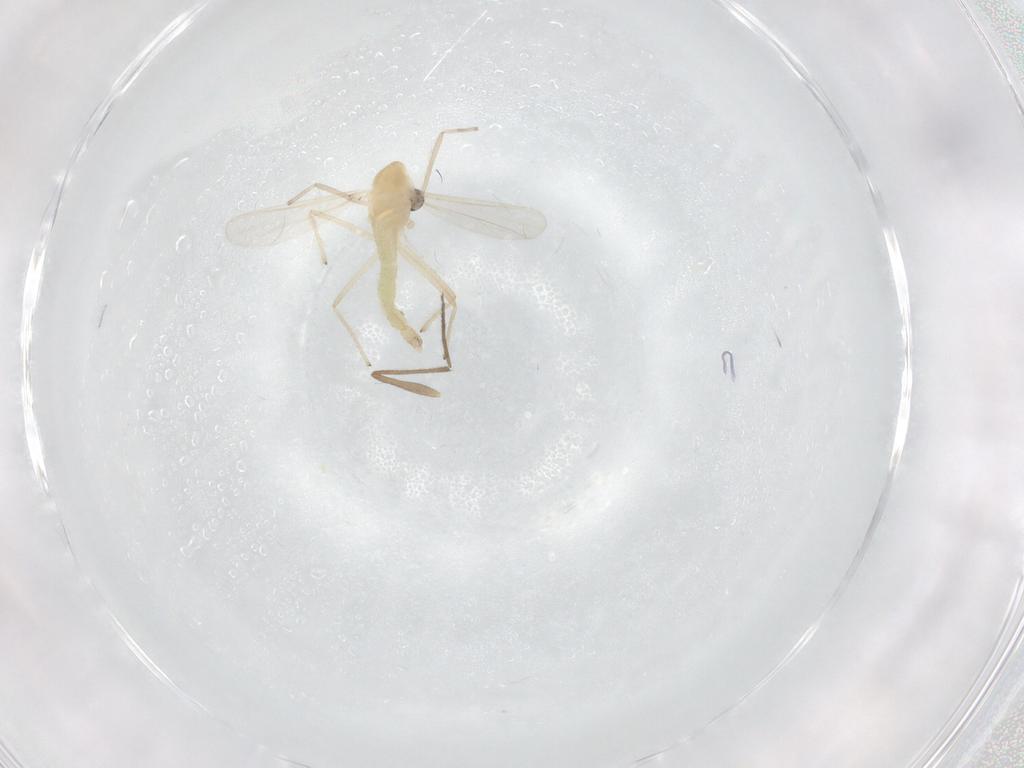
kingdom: Animalia
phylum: Arthropoda
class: Insecta
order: Diptera
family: Chironomidae
